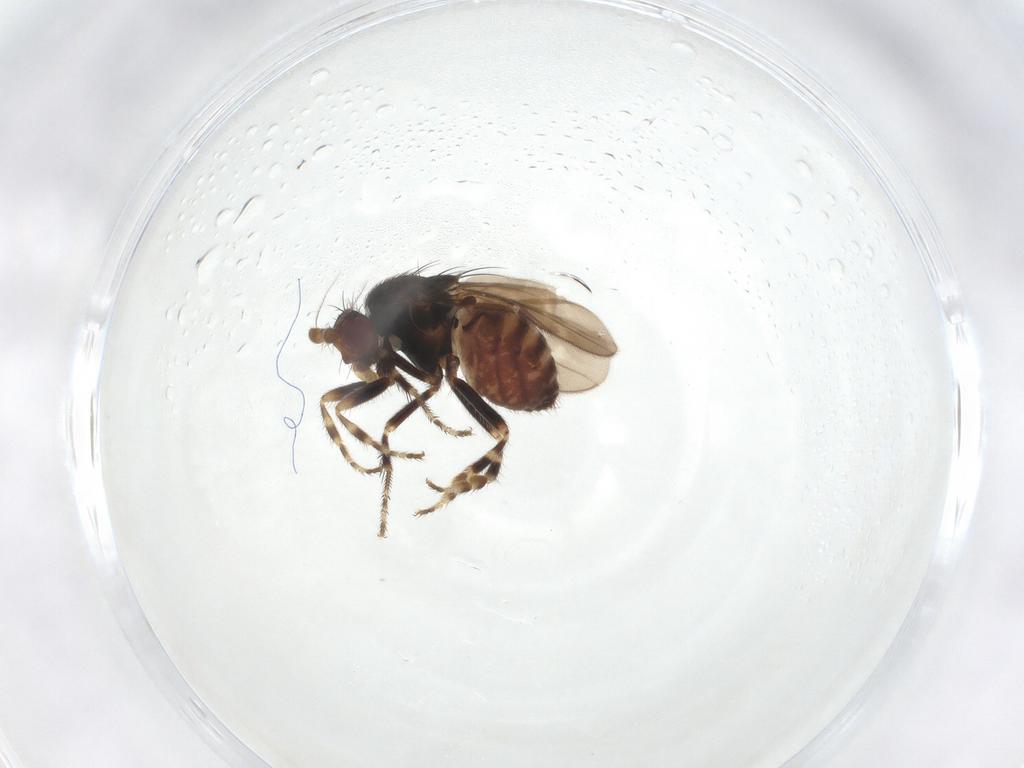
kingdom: Animalia
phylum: Arthropoda
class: Insecta
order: Diptera
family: Sphaeroceridae
